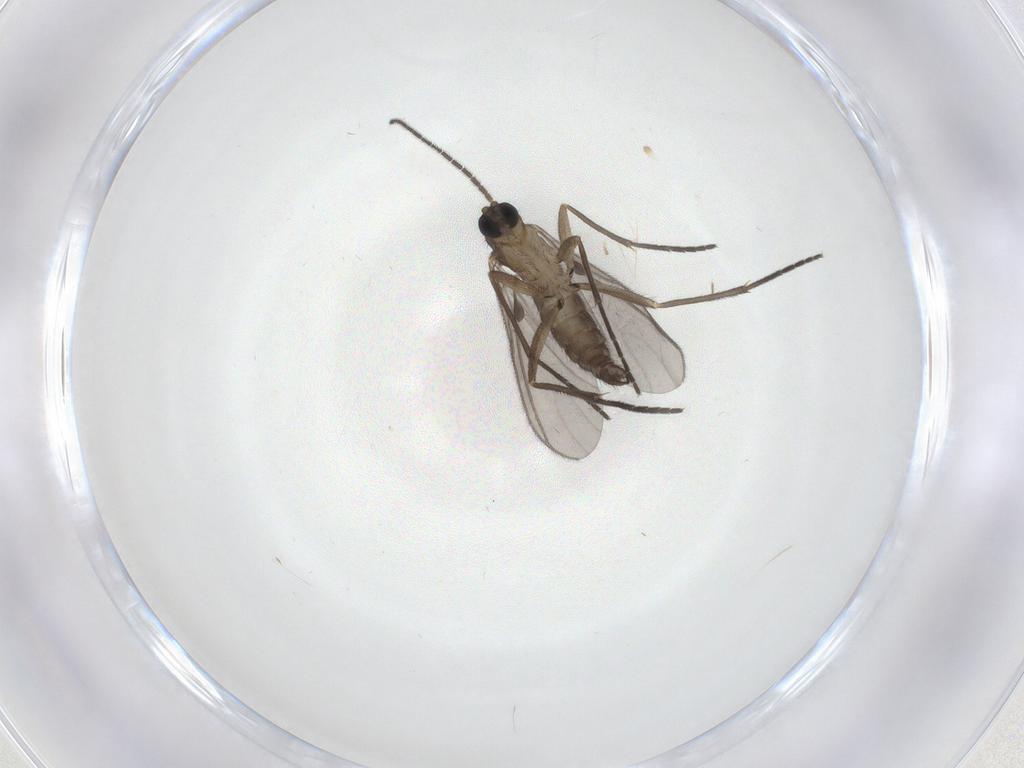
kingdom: Animalia
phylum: Arthropoda
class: Insecta
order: Diptera
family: Sciaridae
